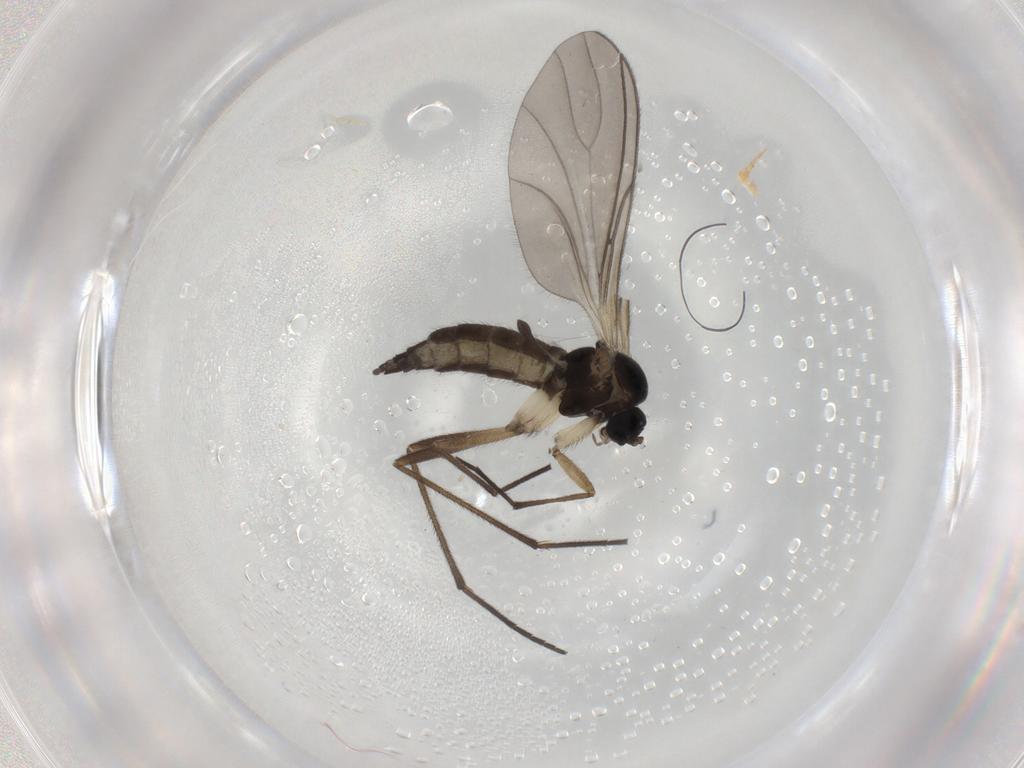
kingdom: Animalia
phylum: Arthropoda
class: Insecta
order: Diptera
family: Sciaridae
